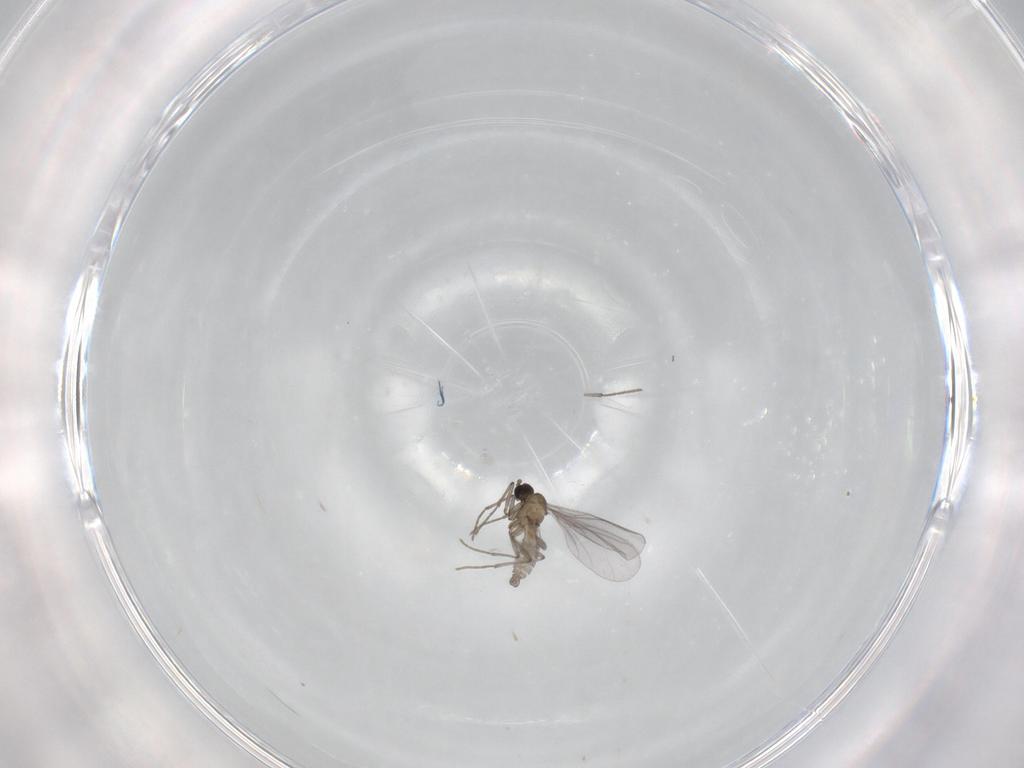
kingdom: Animalia
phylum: Arthropoda
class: Insecta
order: Diptera
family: Sciaridae
